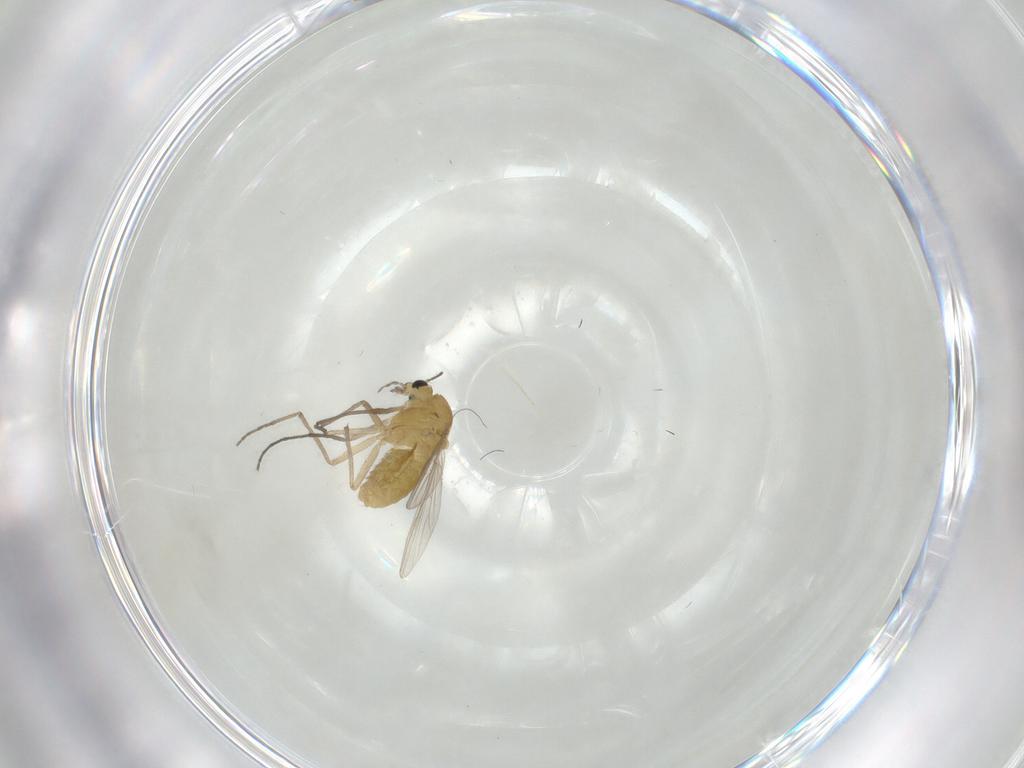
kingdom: Animalia
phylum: Arthropoda
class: Insecta
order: Diptera
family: Chironomidae
